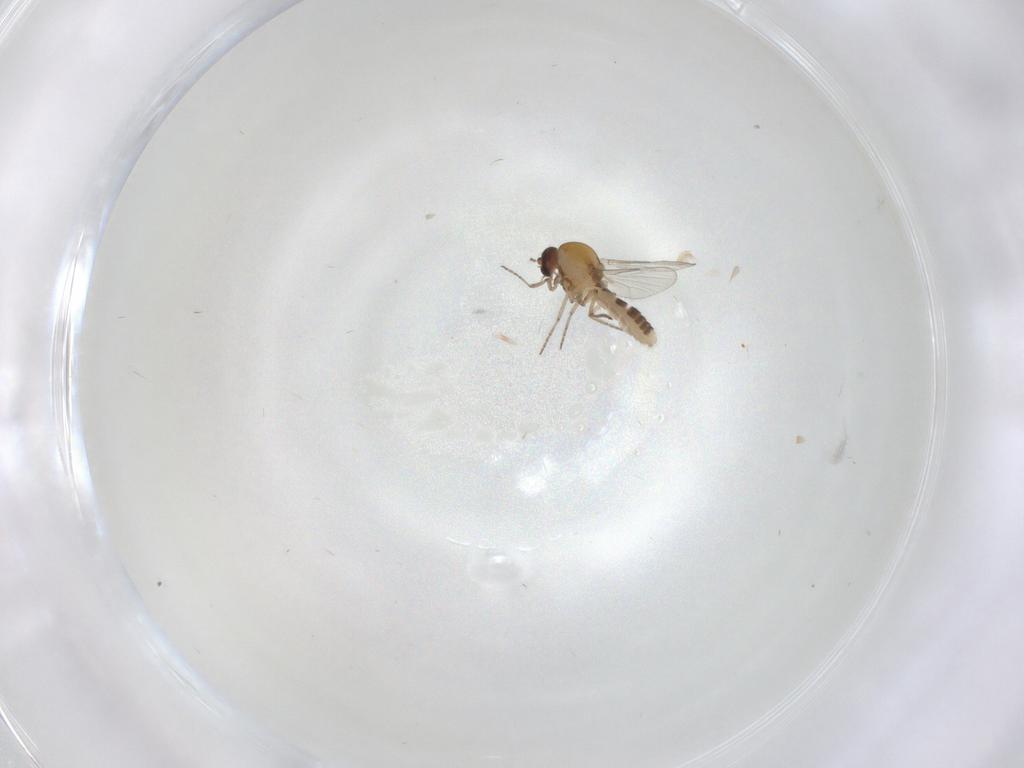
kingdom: Animalia
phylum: Arthropoda
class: Insecta
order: Diptera
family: Ceratopogonidae
